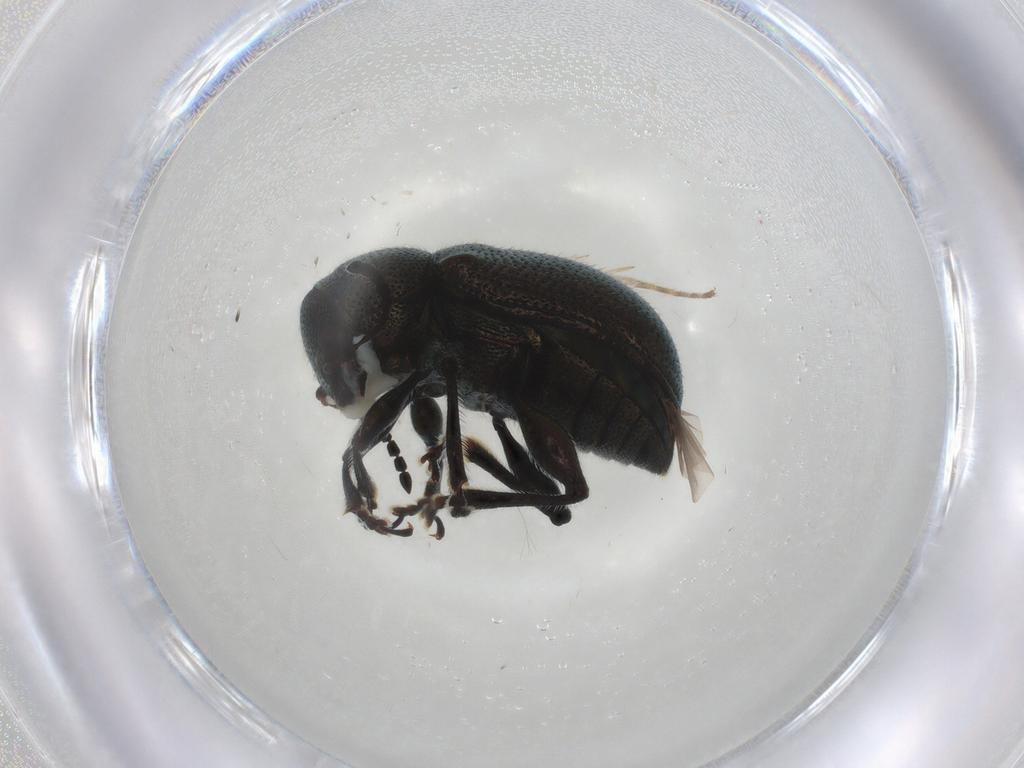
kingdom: Animalia
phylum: Arthropoda
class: Insecta
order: Coleoptera
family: Chrysomelidae
